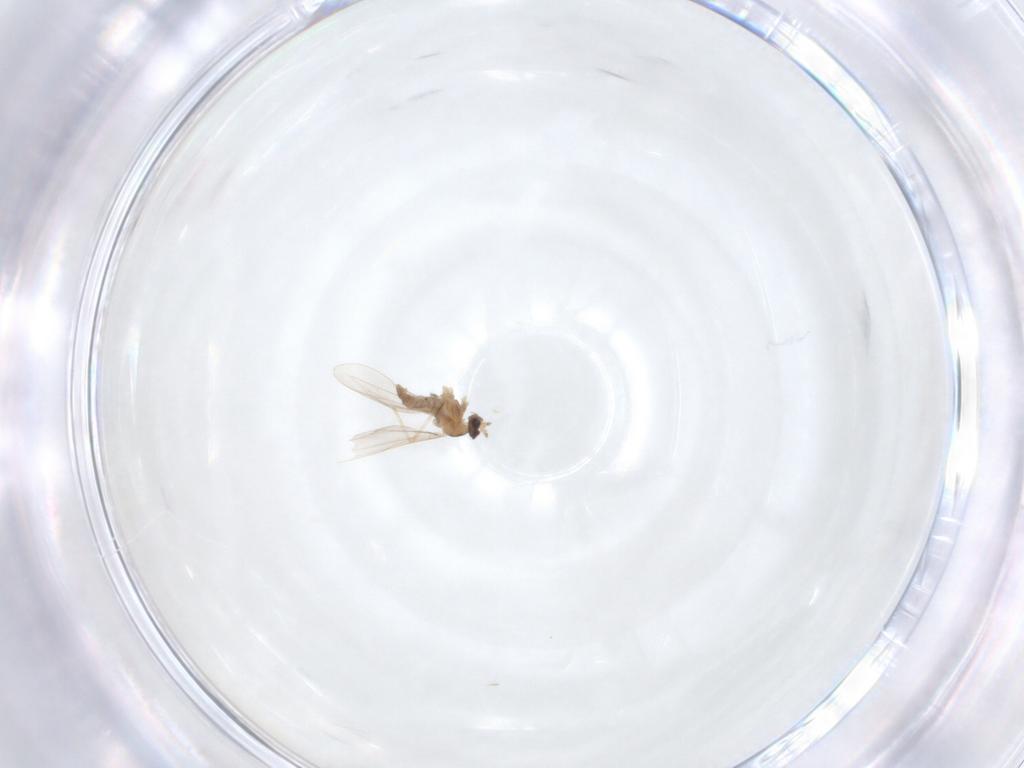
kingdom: Animalia
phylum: Arthropoda
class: Insecta
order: Diptera
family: Cecidomyiidae
